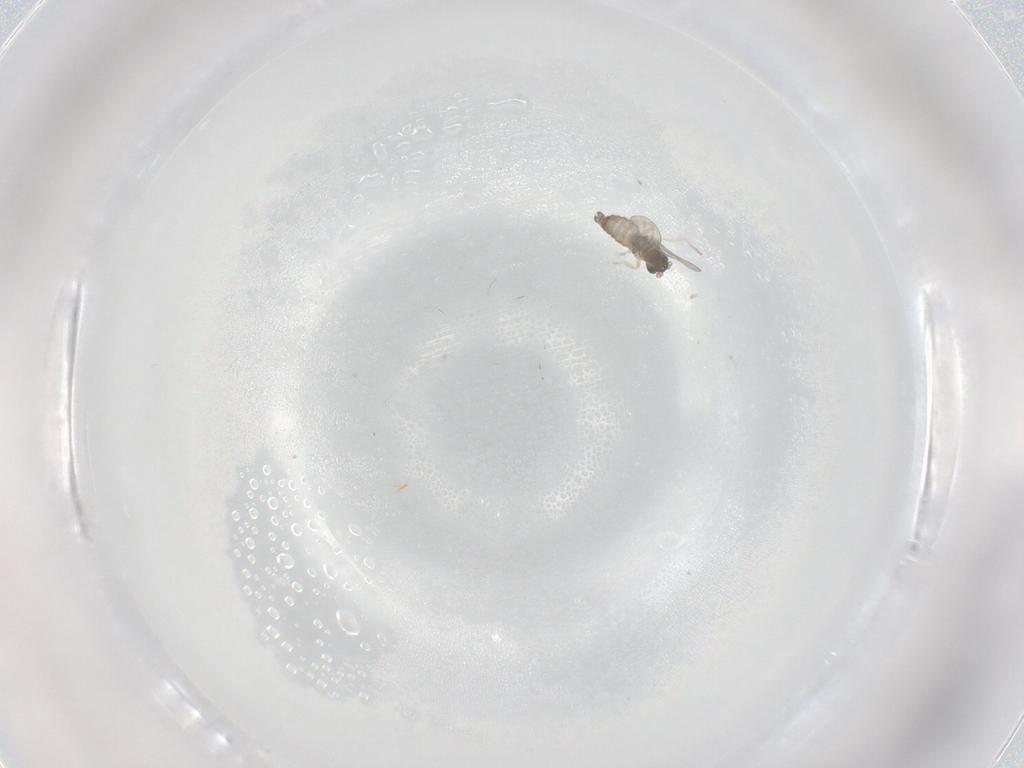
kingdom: Animalia
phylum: Arthropoda
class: Insecta
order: Diptera
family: Cecidomyiidae
